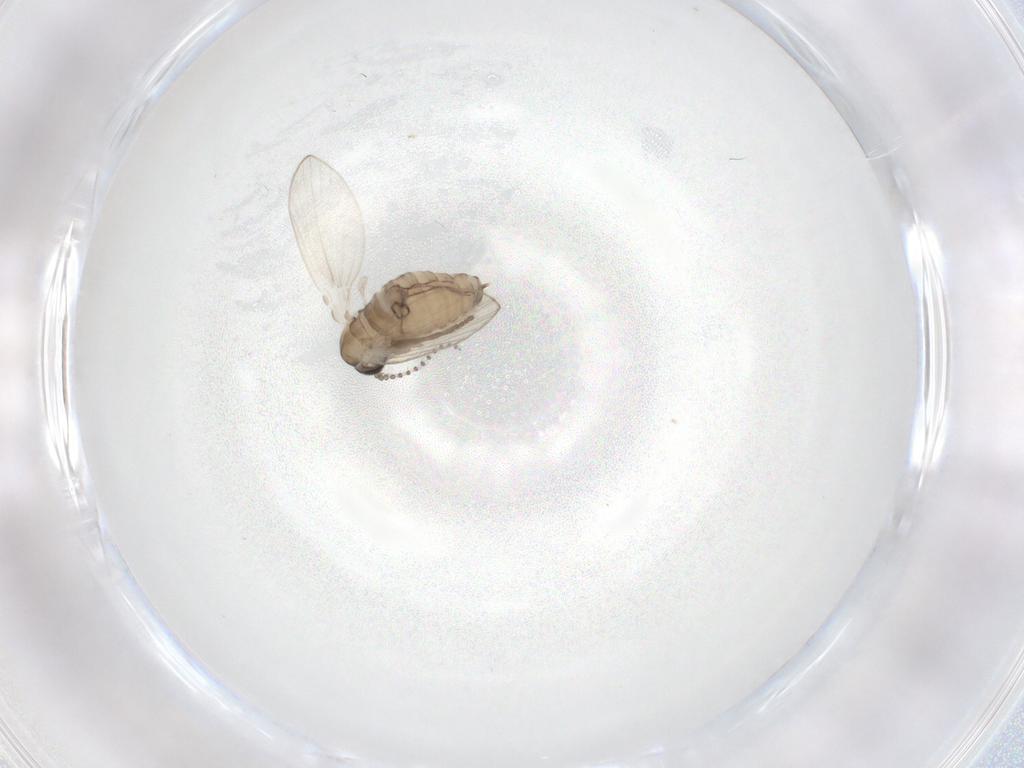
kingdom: Animalia
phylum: Arthropoda
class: Insecta
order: Diptera
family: Psychodidae
